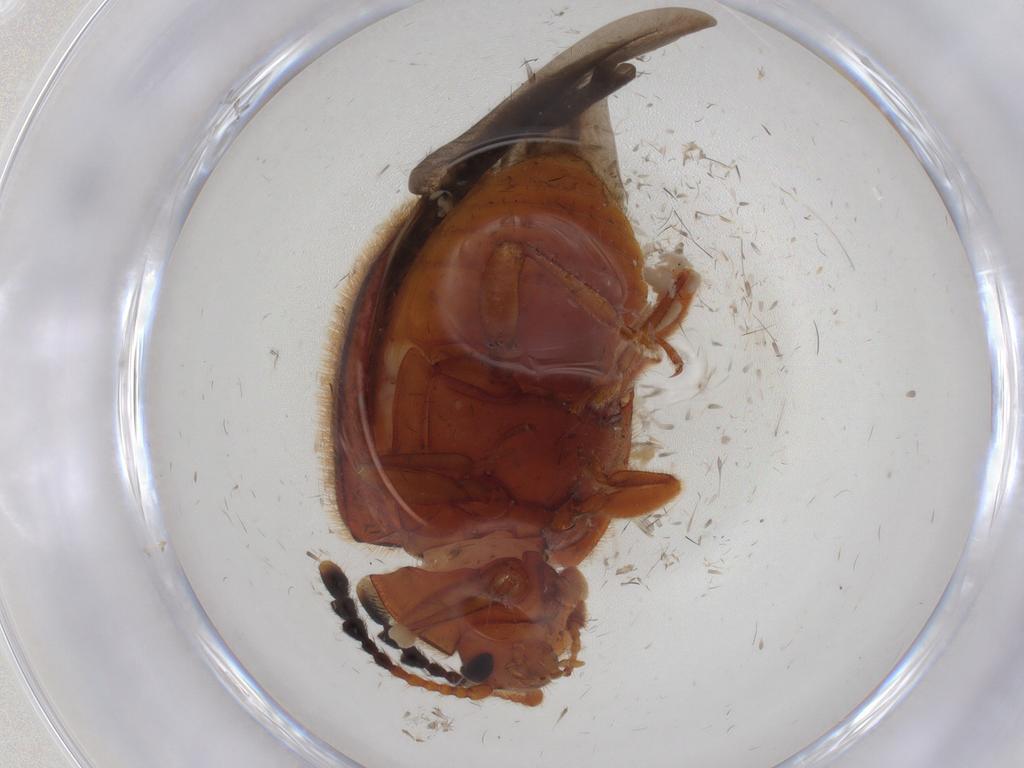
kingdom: Animalia
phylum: Arthropoda
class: Insecta
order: Coleoptera
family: Endomychidae
